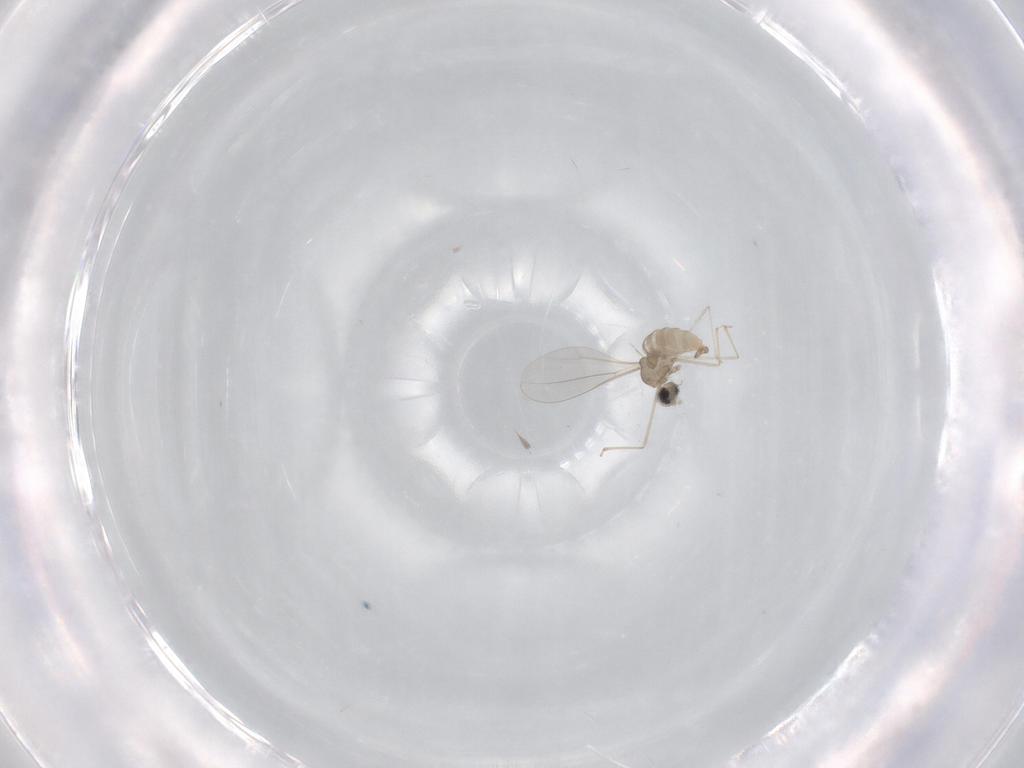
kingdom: Animalia
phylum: Arthropoda
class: Insecta
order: Diptera
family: Cecidomyiidae
